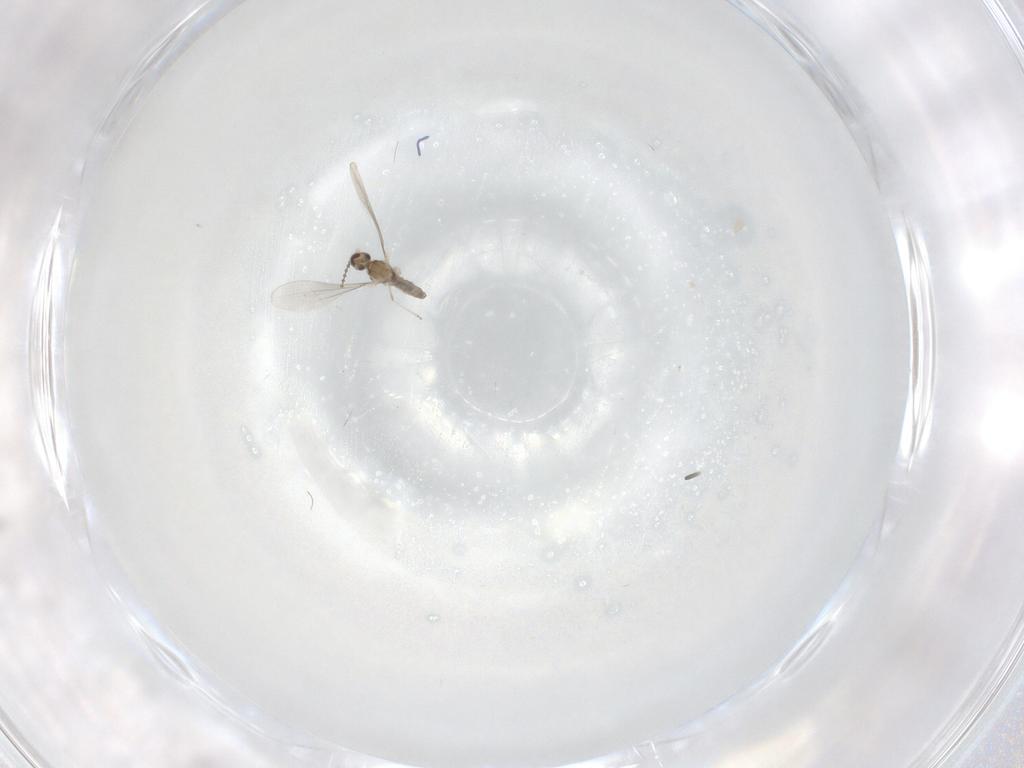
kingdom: Animalia
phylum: Arthropoda
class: Insecta
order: Diptera
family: Cecidomyiidae
